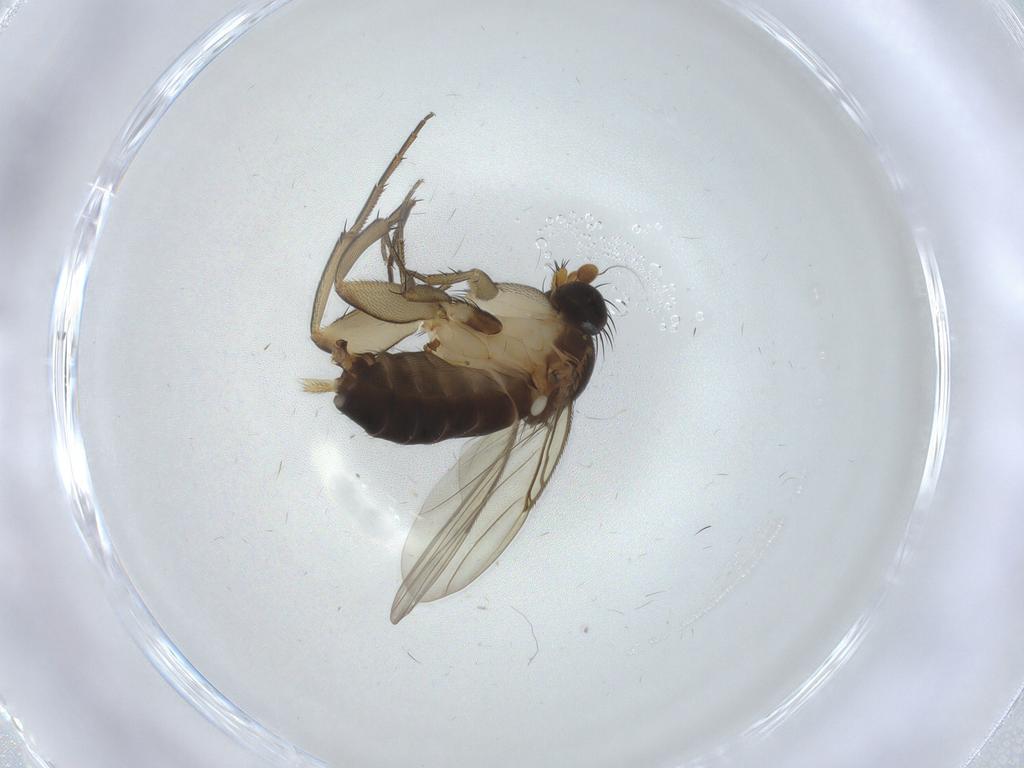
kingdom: Animalia
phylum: Arthropoda
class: Insecta
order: Diptera
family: Phoridae
